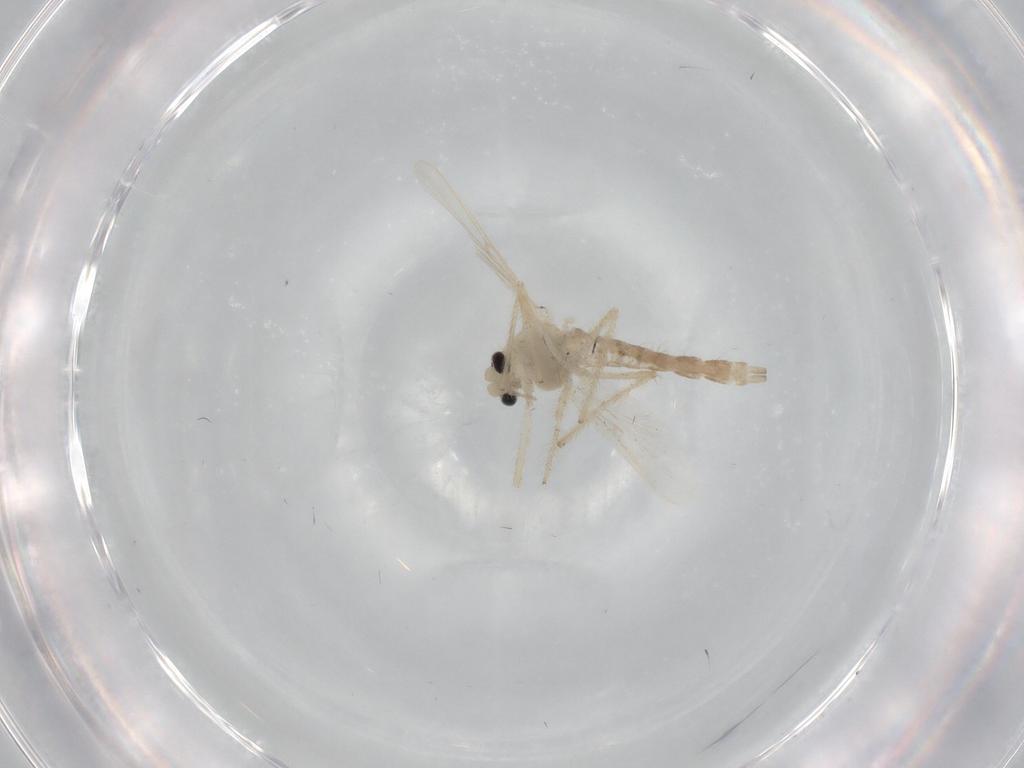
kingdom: Animalia
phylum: Arthropoda
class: Insecta
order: Diptera
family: Chironomidae
